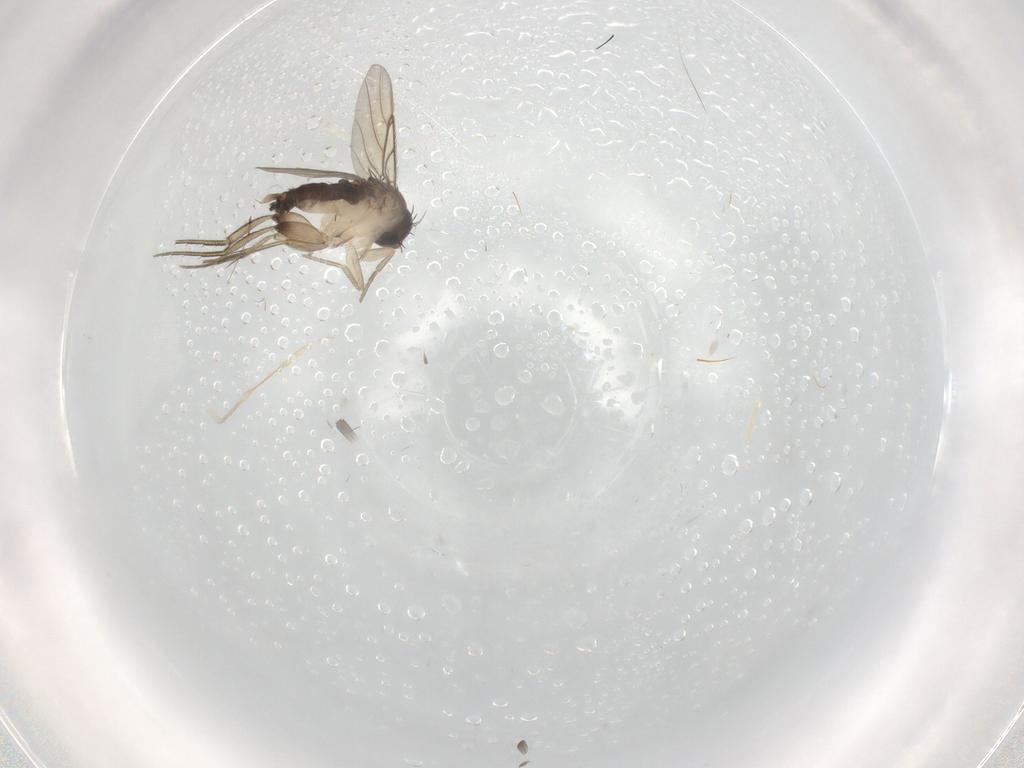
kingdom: Animalia
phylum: Arthropoda
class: Insecta
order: Diptera
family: Phoridae
